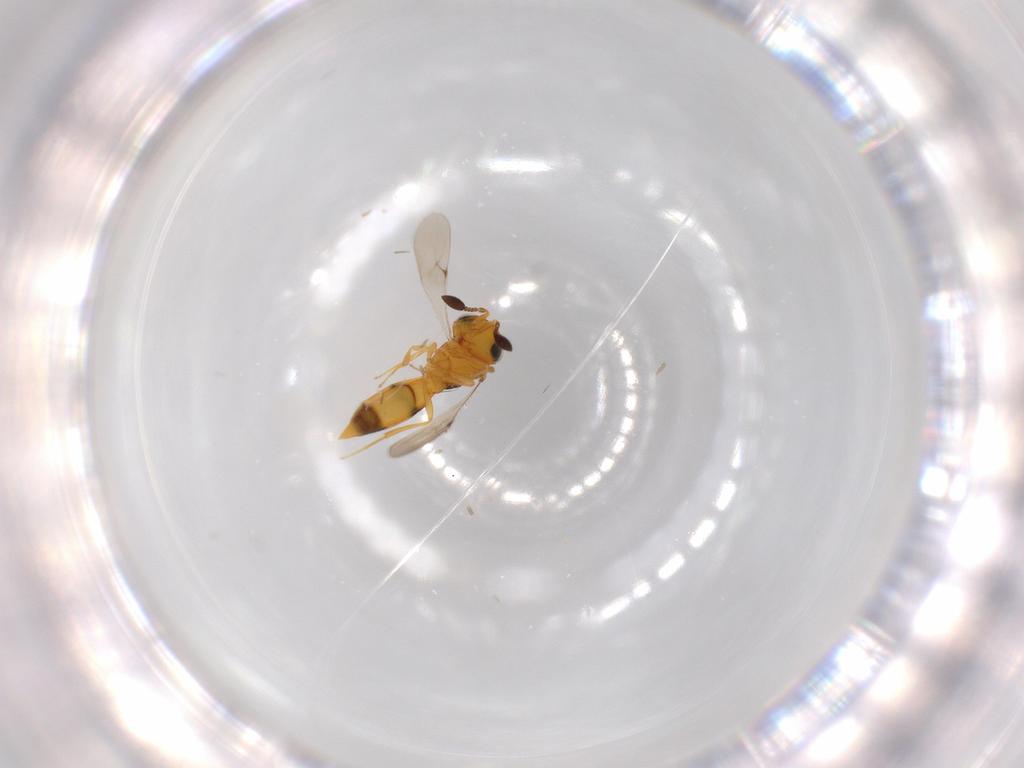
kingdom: Animalia
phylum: Arthropoda
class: Insecta
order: Hymenoptera
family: Scelionidae
